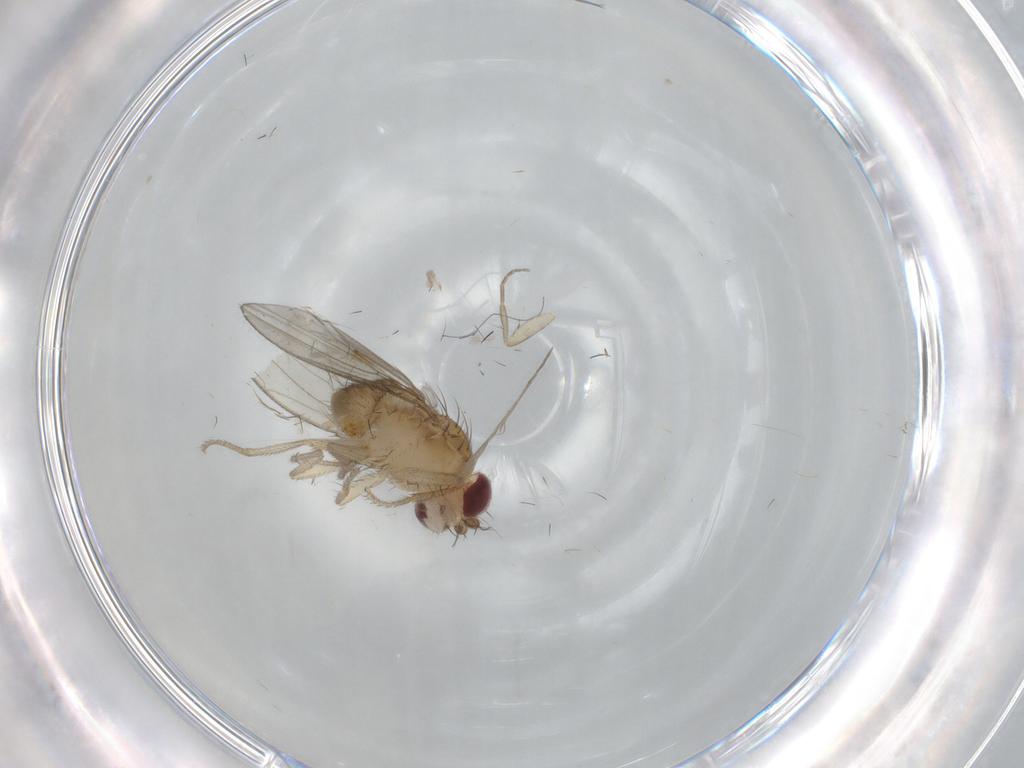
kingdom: Animalia
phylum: Arthropoda
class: Insecta
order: Diptera
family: Drosophilidae
